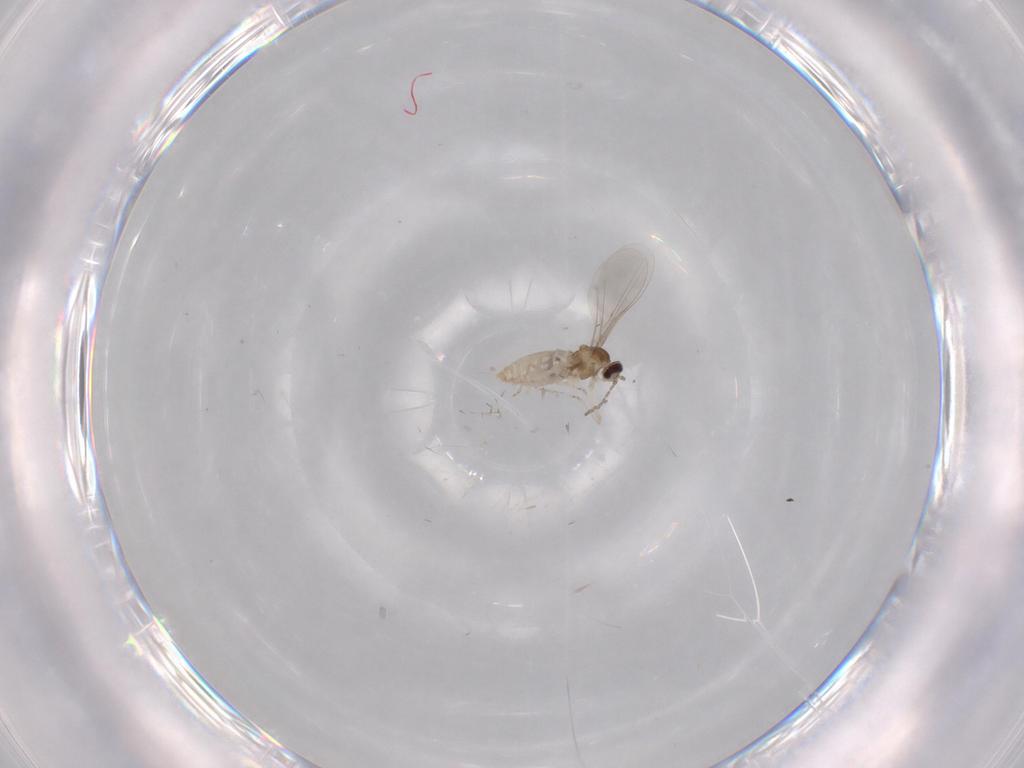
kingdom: Animalia
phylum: Arthropoda
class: Insecta
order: Diptera
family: Cecidomyiidae
